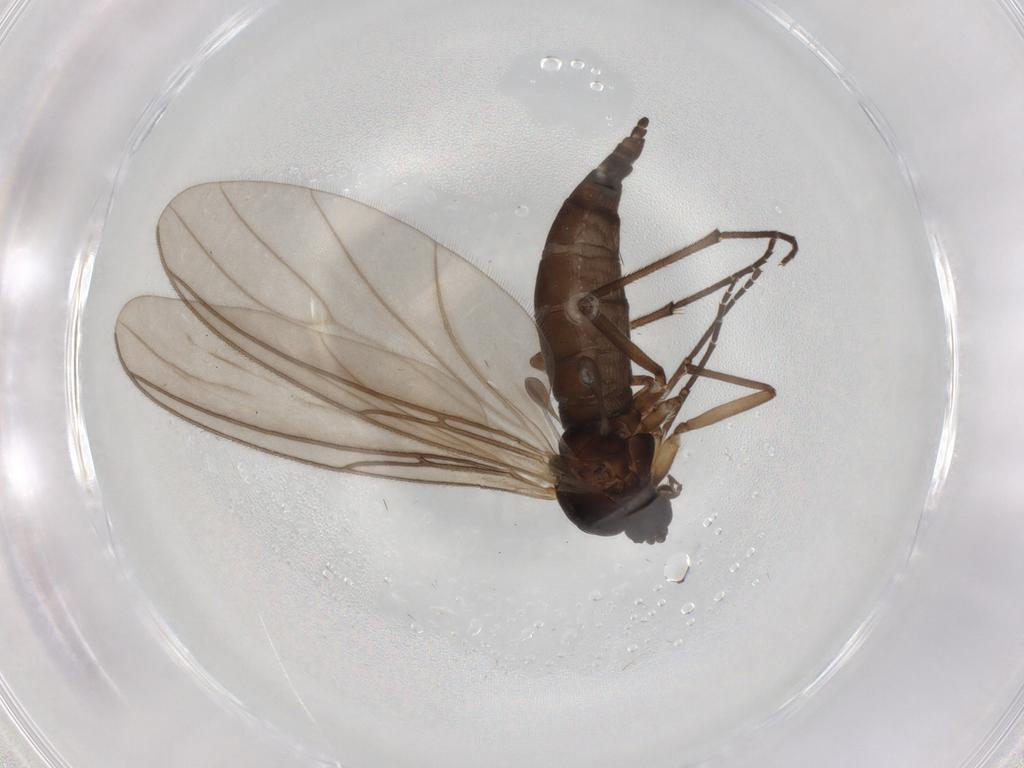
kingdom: Animalia
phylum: Arthropoda
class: Insecta
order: Diptera
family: Sciaridae
